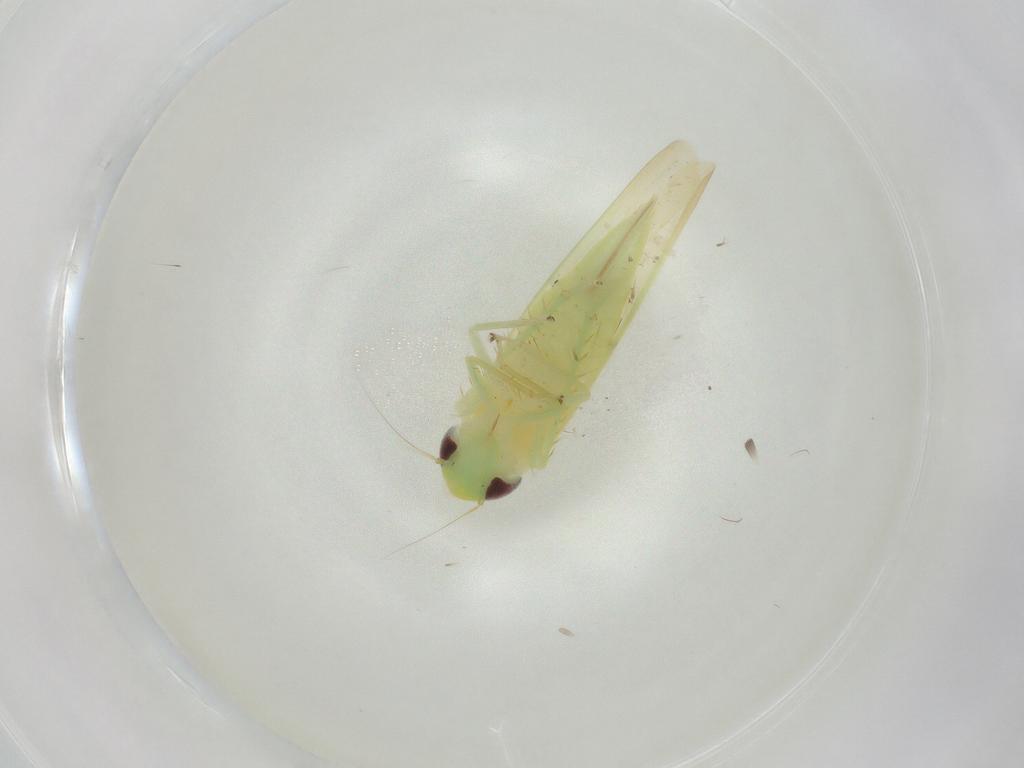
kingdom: Animalia
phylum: Arthropoda
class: Insecta
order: Hemiptera
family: Cicadellidae
